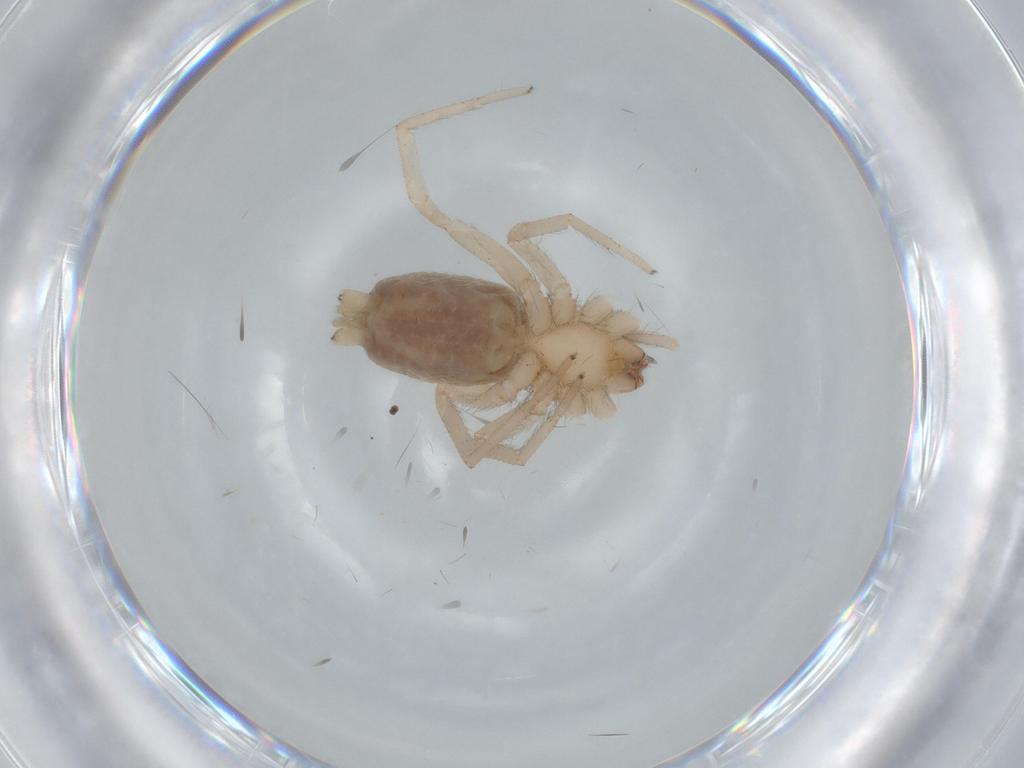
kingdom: Animalia
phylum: Arthropoda
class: Arachnida
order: Araneae
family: Gnaphosidae
